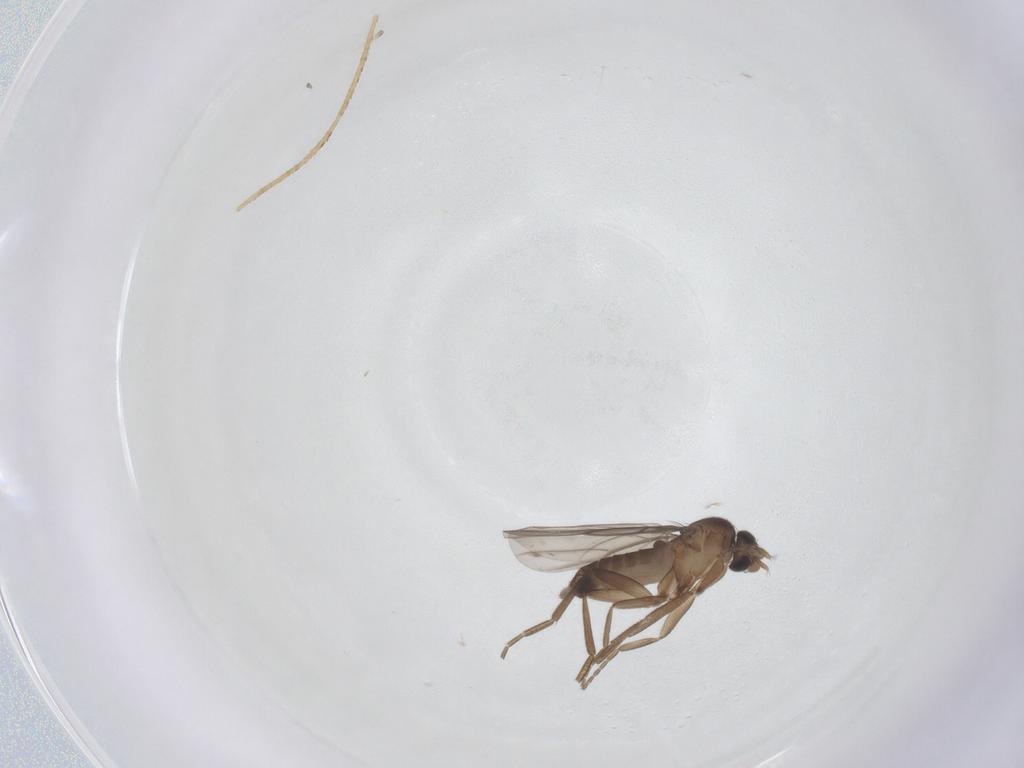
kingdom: Animalia
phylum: Arthropoda
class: Insecta
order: Diptera
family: Phoridae
